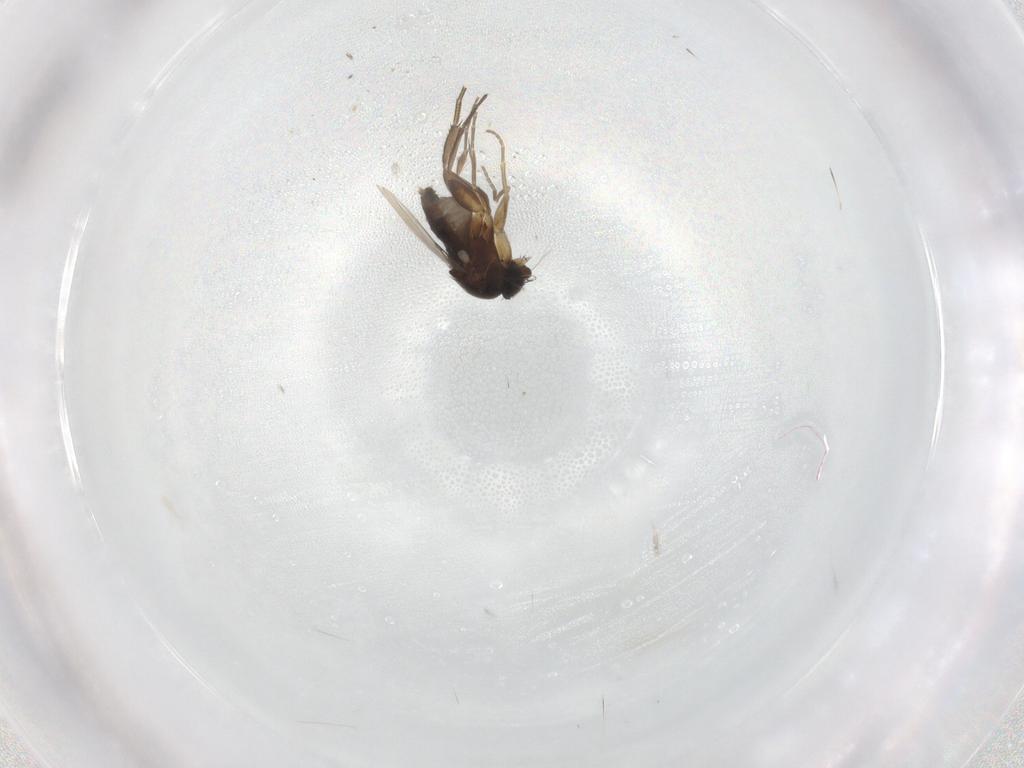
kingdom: Animalia
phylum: Arthropoda
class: Insecta
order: Diptera
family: Phoridae
